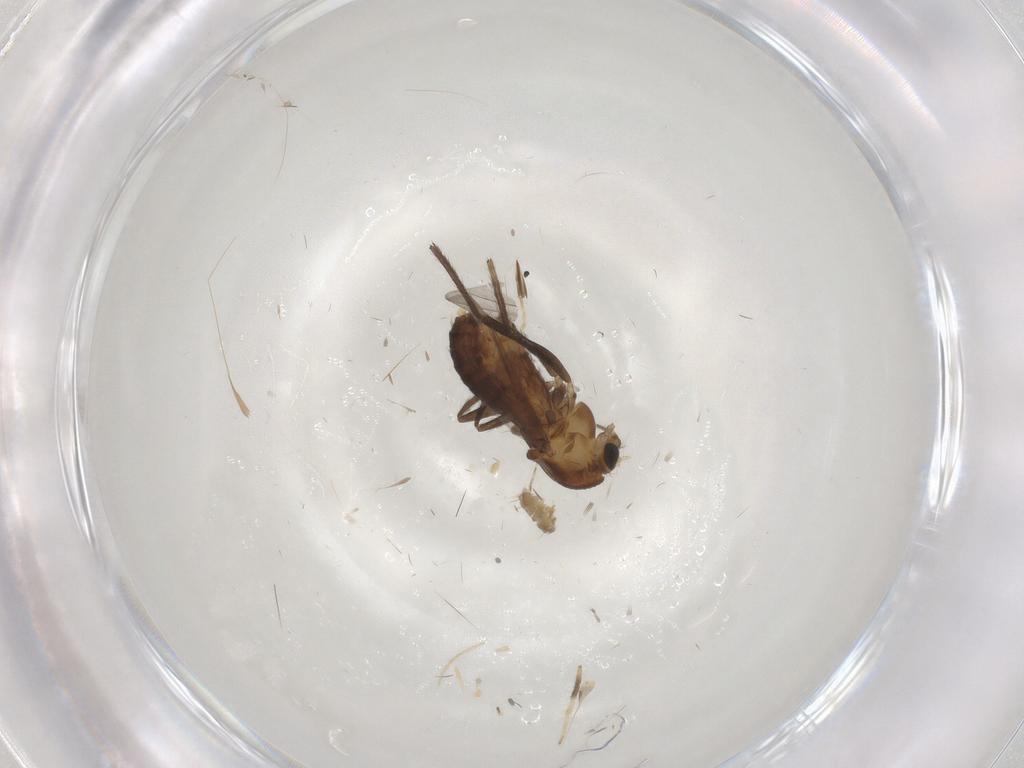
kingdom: Animalia
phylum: Arthropoda
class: Insecta
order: Diptera
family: Chironomidae
